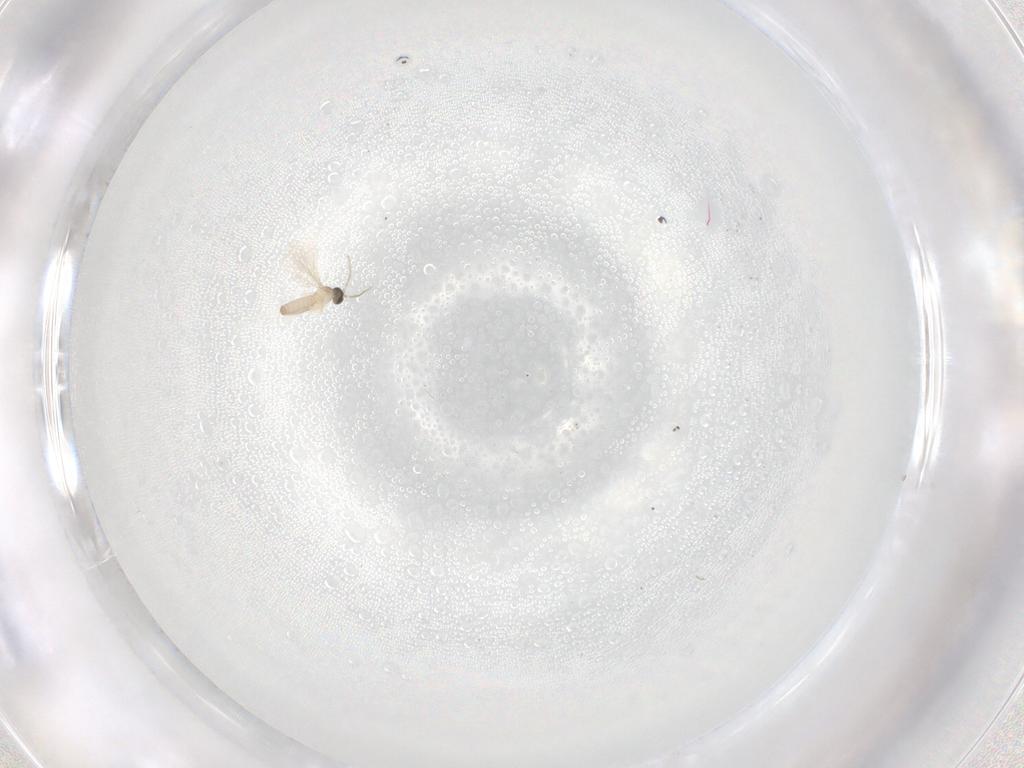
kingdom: Animalia
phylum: Arthropoda
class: Insecta
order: Diptera
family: Cecidomyiidae
